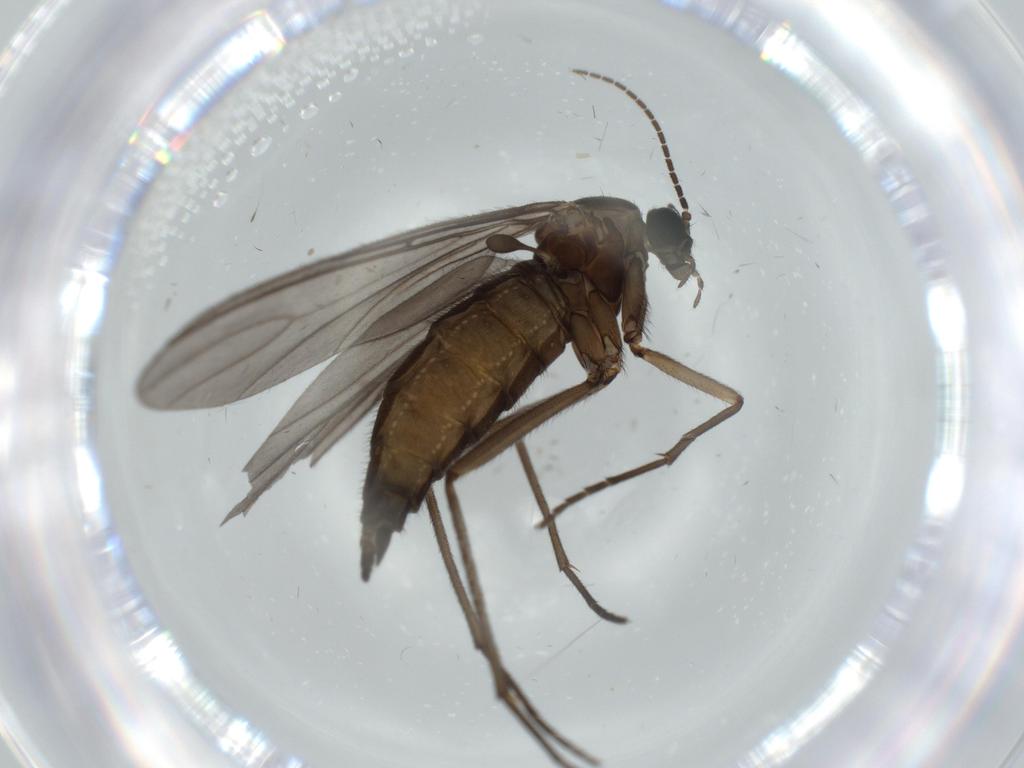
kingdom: Animalia
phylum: Arthropoda
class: Insecta
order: Diptera
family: Sciaridae
